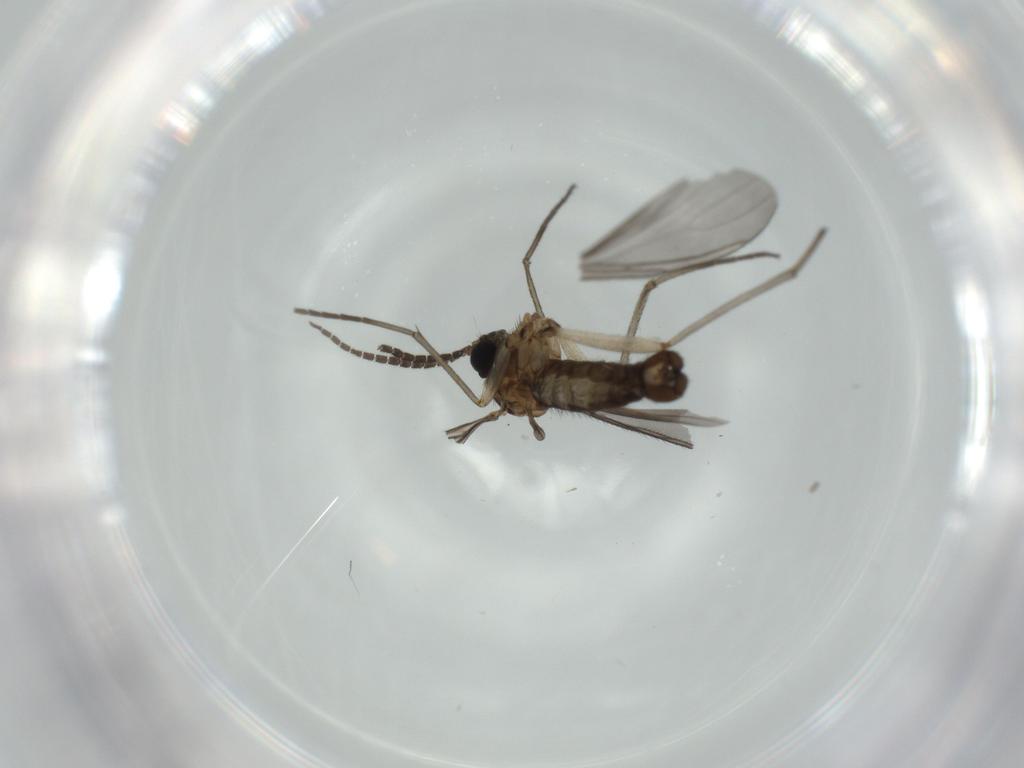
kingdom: Animalia
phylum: Arthropoda
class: Insecta
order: Diptera
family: Sciaridae
